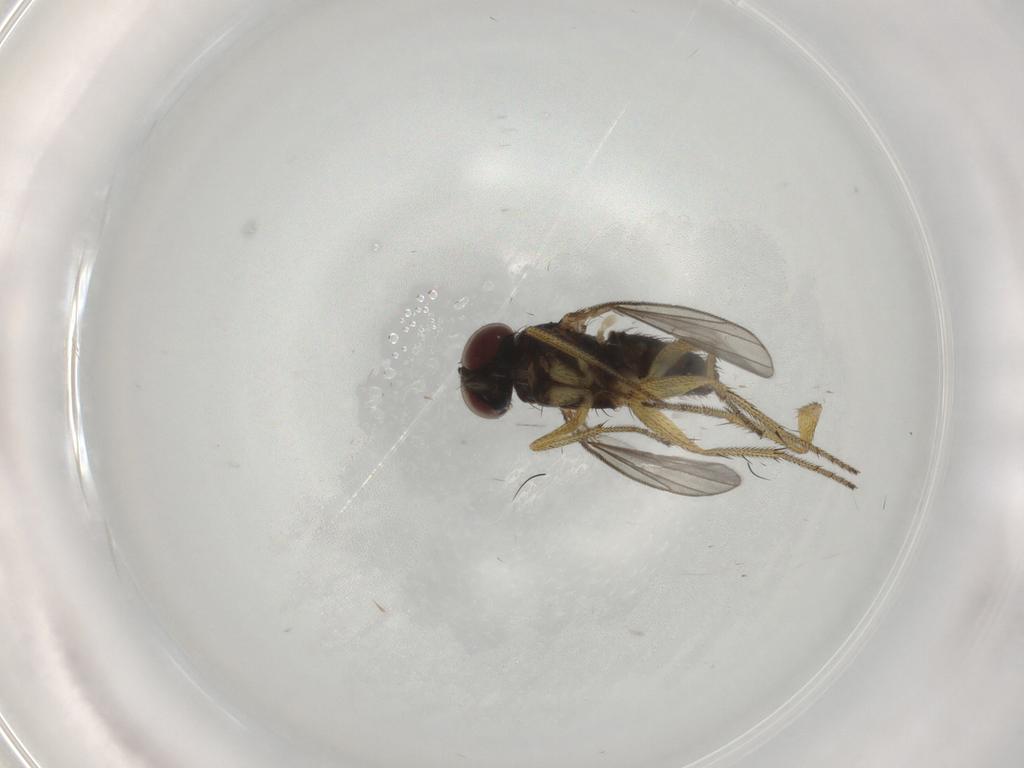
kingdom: Animalia
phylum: Arthropoda
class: Insecta
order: Diptera
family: Dolichopodidae
